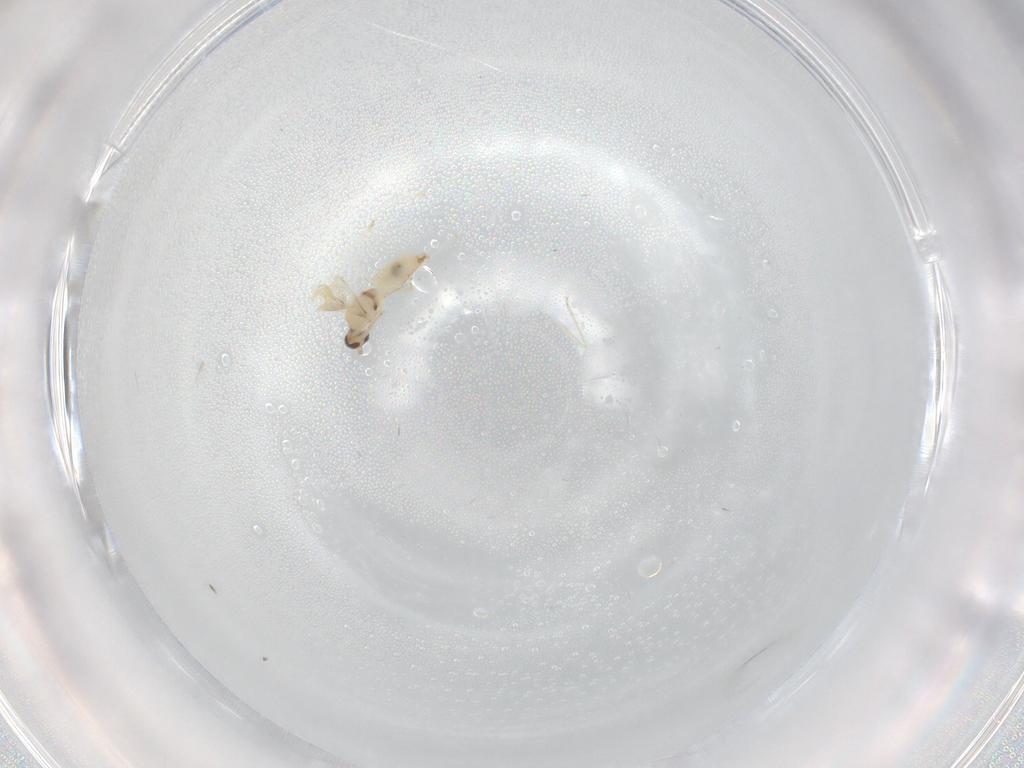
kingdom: Animalia
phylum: Arthropoda
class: Insecta
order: Diptera
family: Cecidomyiidae
